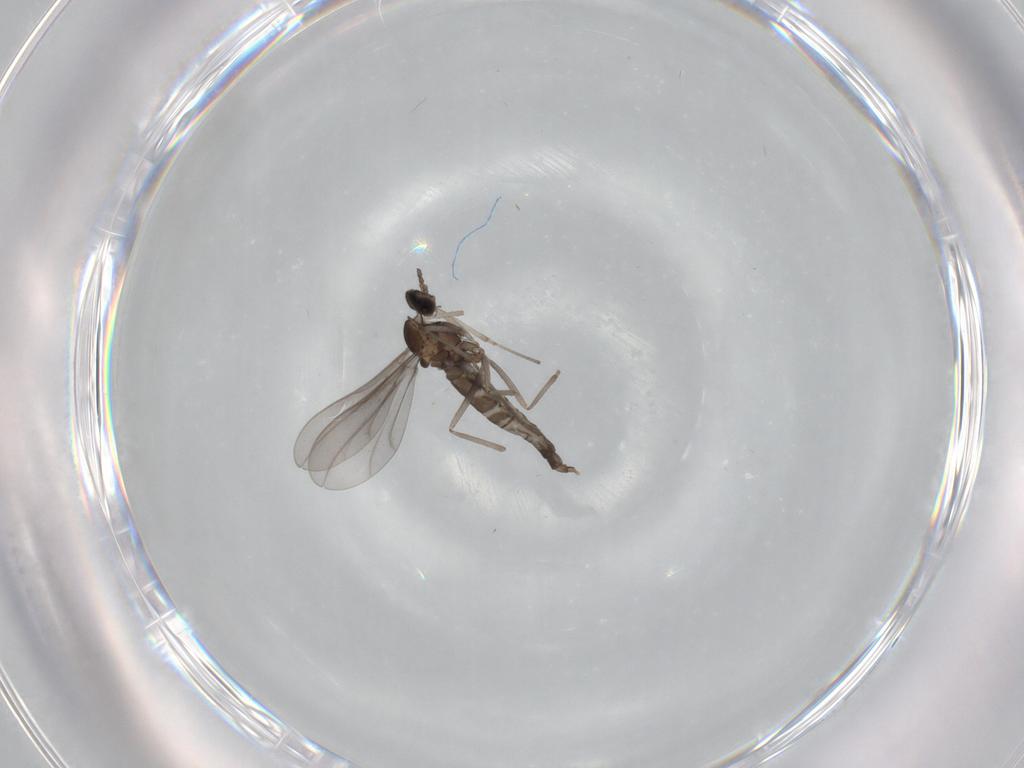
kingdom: Animalia
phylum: Arthropoda
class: Insecta
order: Diptera
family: Cecidomyiidae
